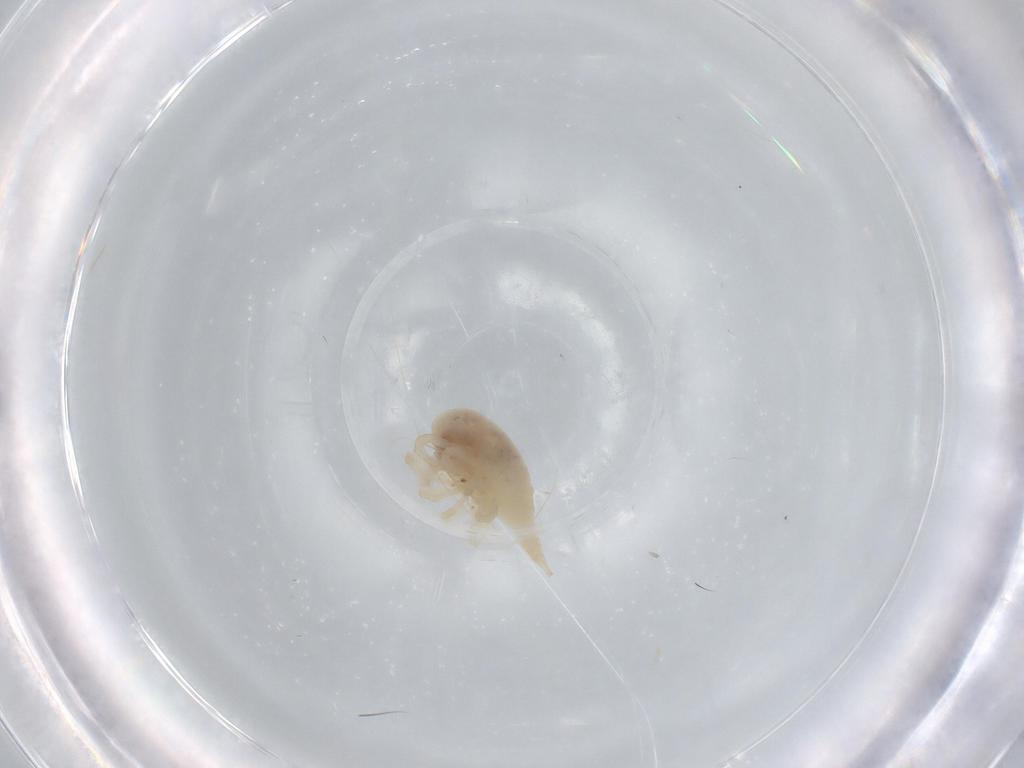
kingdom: Animalia
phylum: Arthropoda
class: Arachnida
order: Trombidiformes
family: Bdellidae
